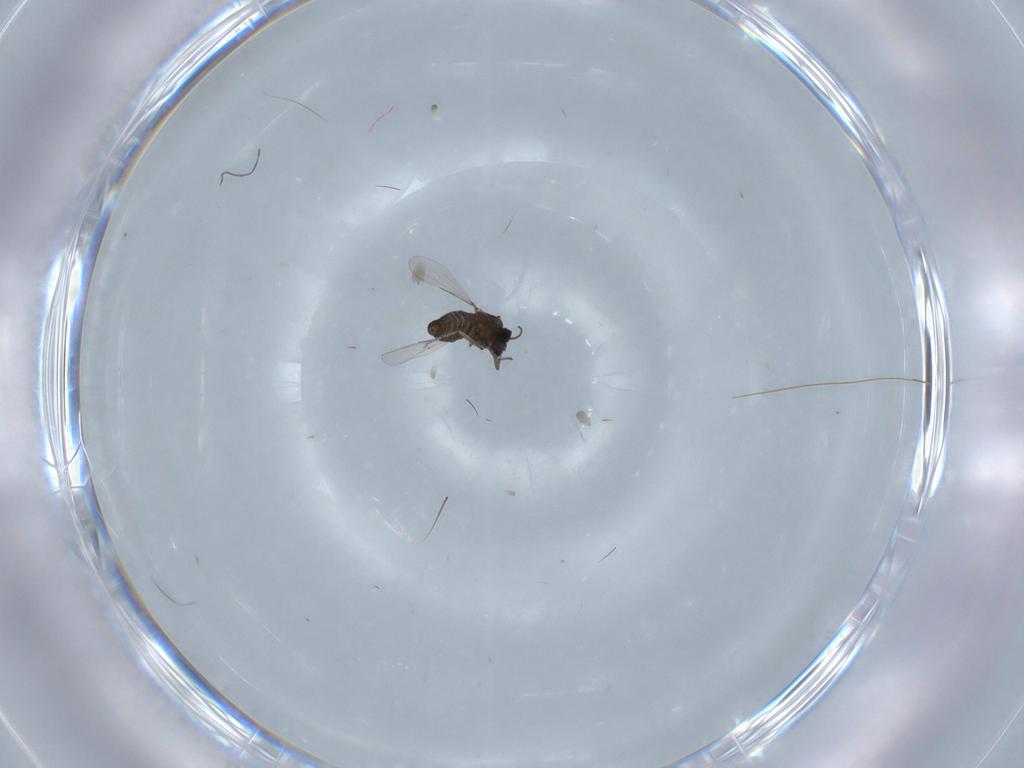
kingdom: Animalia
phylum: Arthropoda
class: Insecta
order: Diptera
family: Ceratopogonidae
